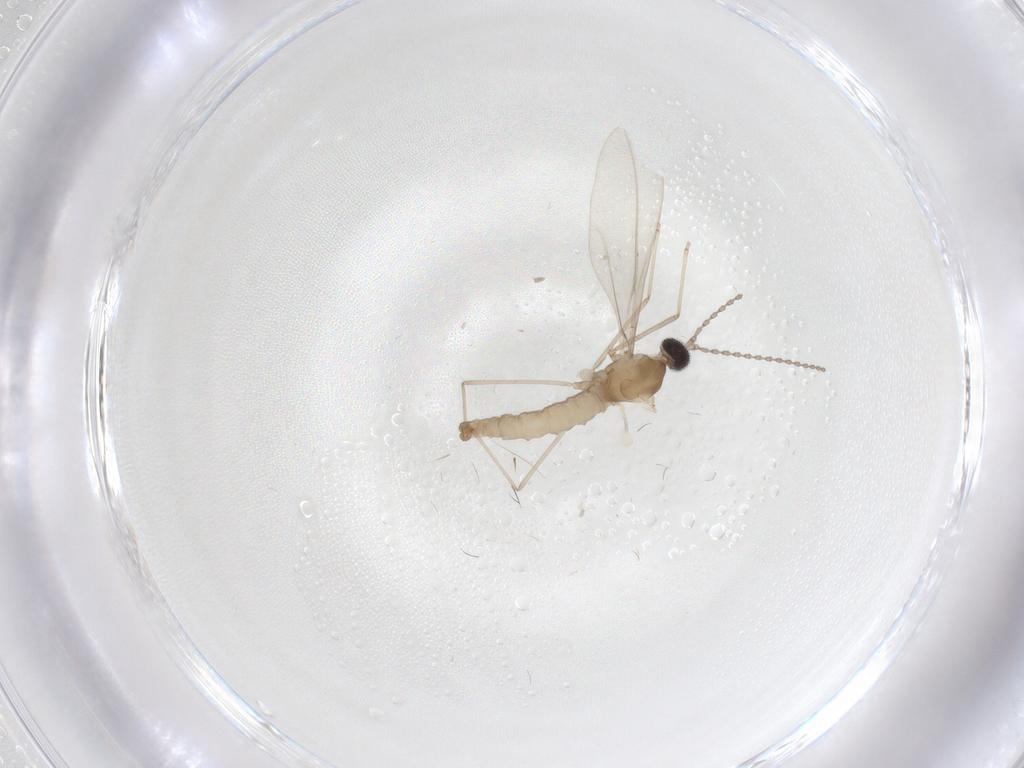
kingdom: Animalia
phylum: Arthropoda
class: Insecta
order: Diptera
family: Cecidomyiidae
